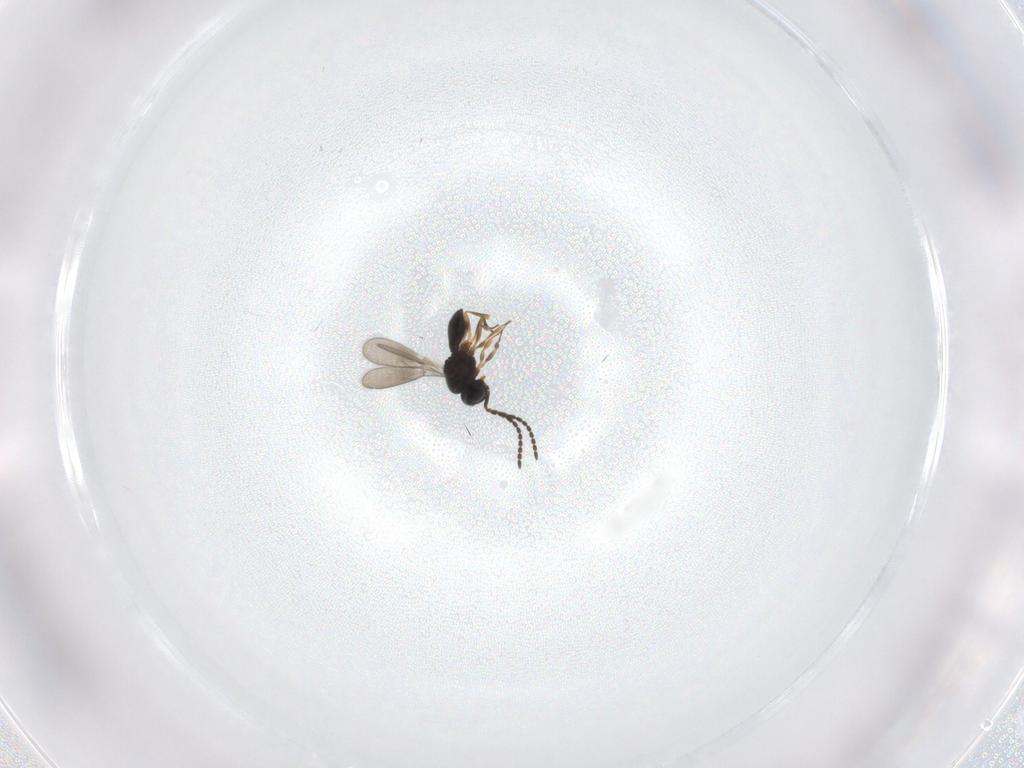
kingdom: Animalia
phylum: Arthropoda
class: Insecta
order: Hymenoptera
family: Scelionidae
